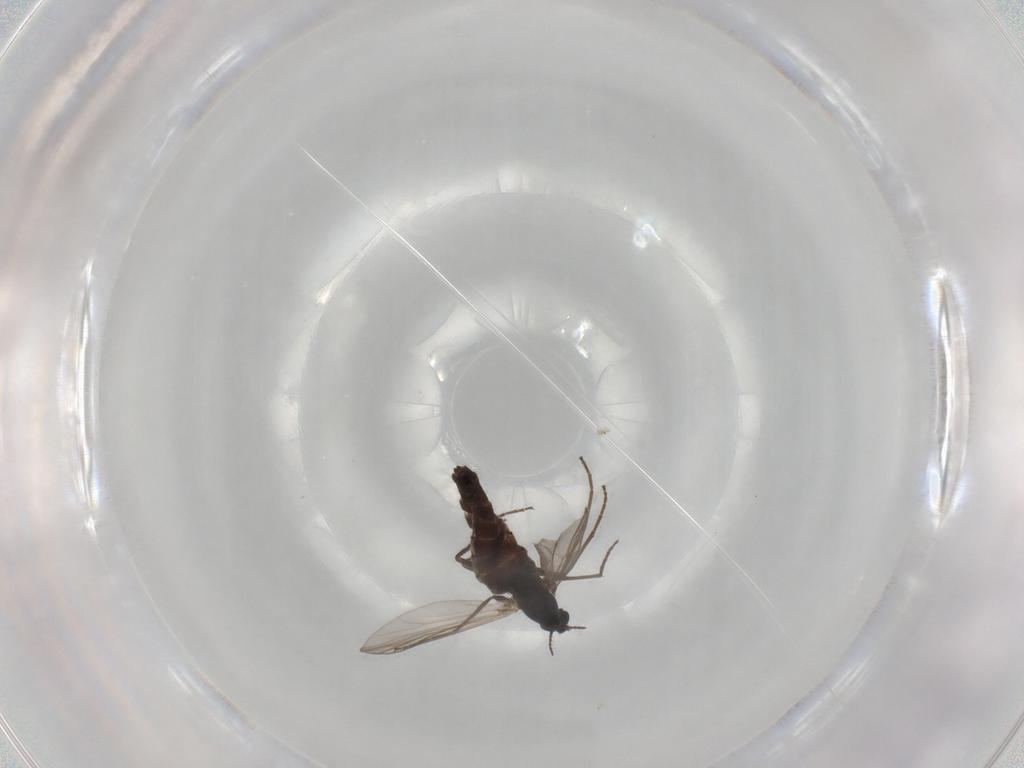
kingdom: Animalia
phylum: Arthropoda
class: Insecta
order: Diptera
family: Chironomidae
